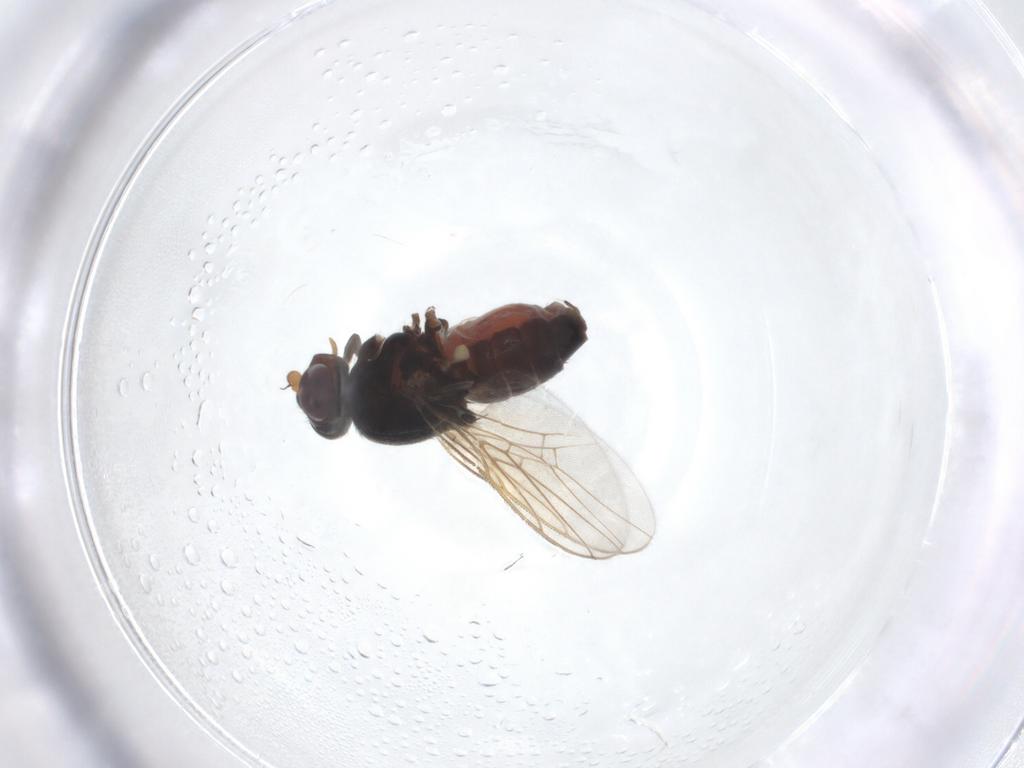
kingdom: Animalia
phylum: Arthropoda
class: Insecta
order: Diptera
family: Chloropidae
